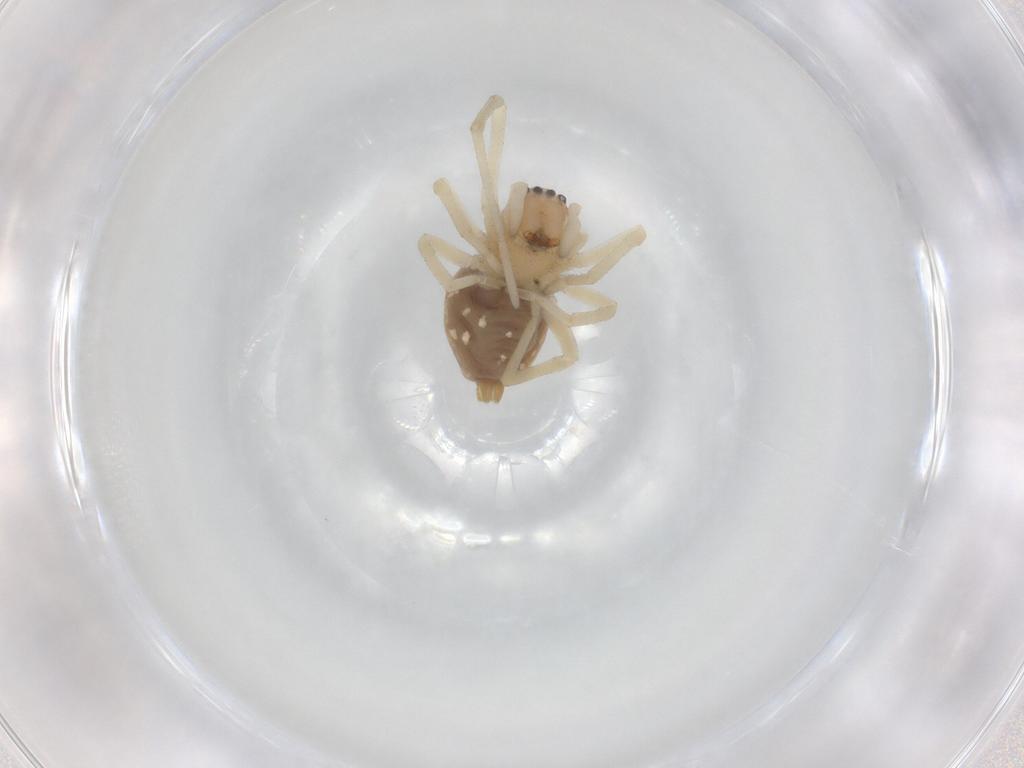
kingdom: Animalia
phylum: Arthropoda
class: Arachnida
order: Araneae
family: Cheiracanthiidae
